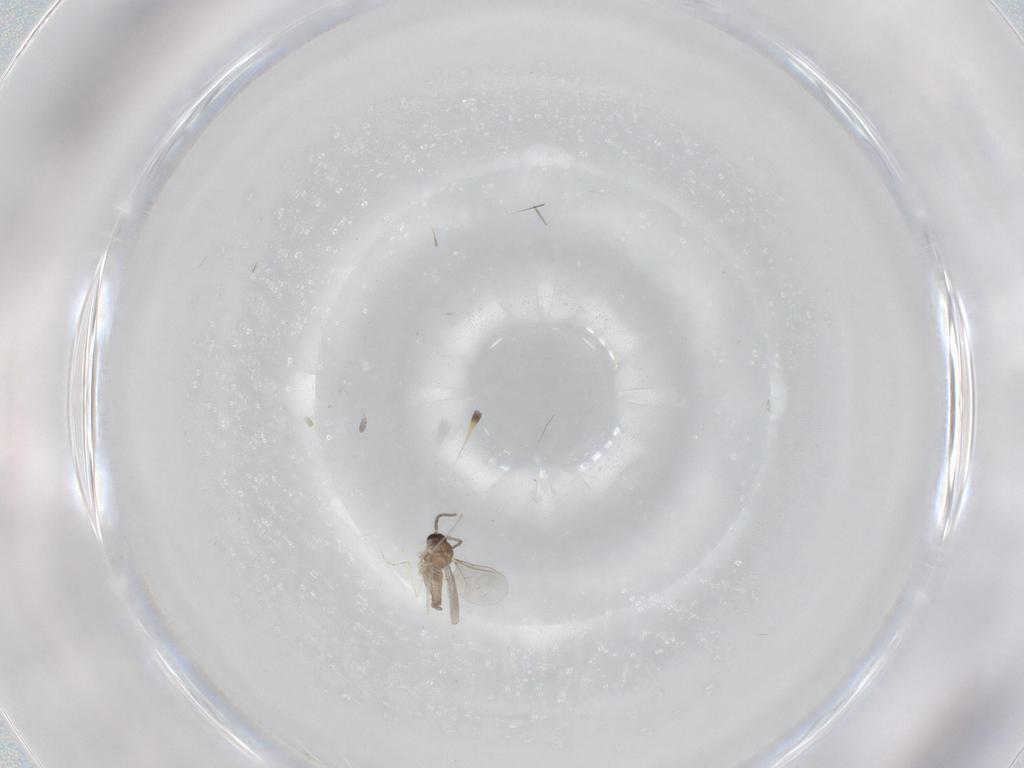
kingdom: Animalia
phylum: Arthropoda
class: Insecta
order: Diptera
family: Cecidomyiidae
